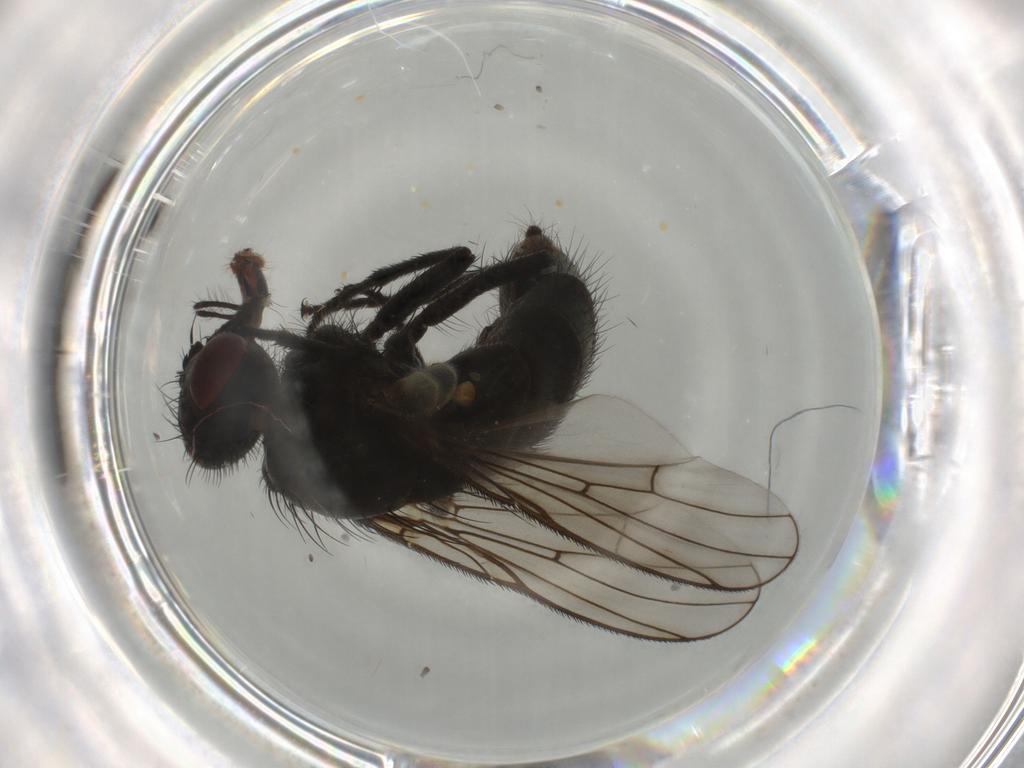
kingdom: Animalia
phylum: Arthropoda
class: Insecta
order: Diptera
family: Muscidae
